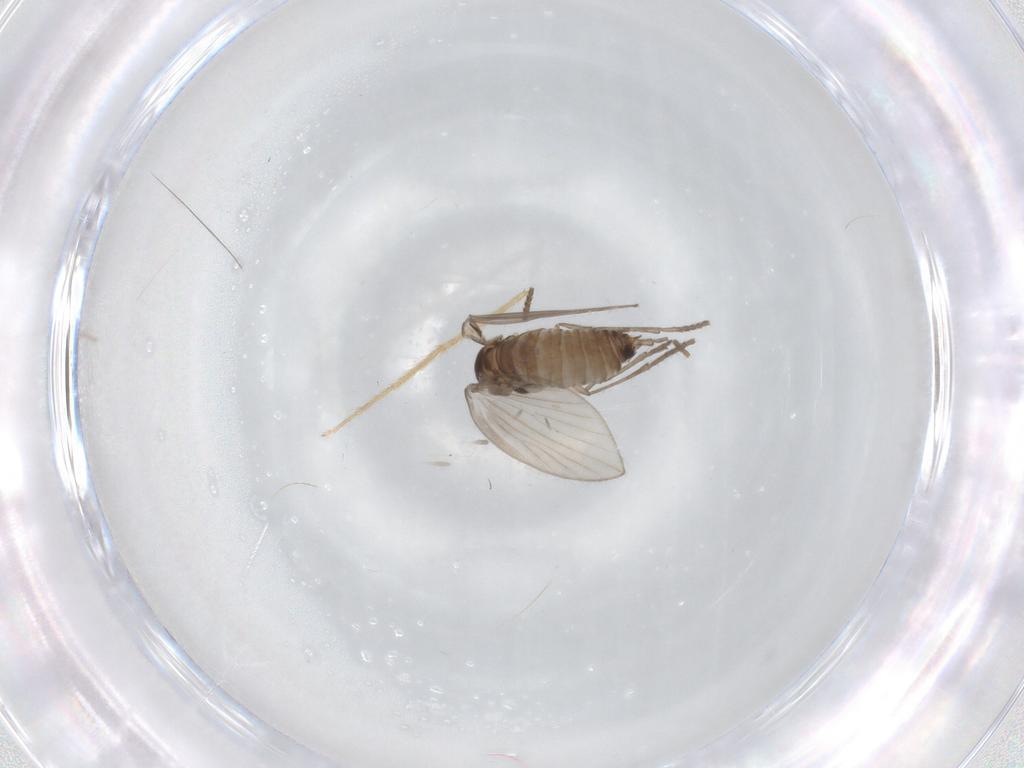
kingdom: Animalia
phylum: Arthropoda
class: Insecta
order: Diptera
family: Chironomidae
